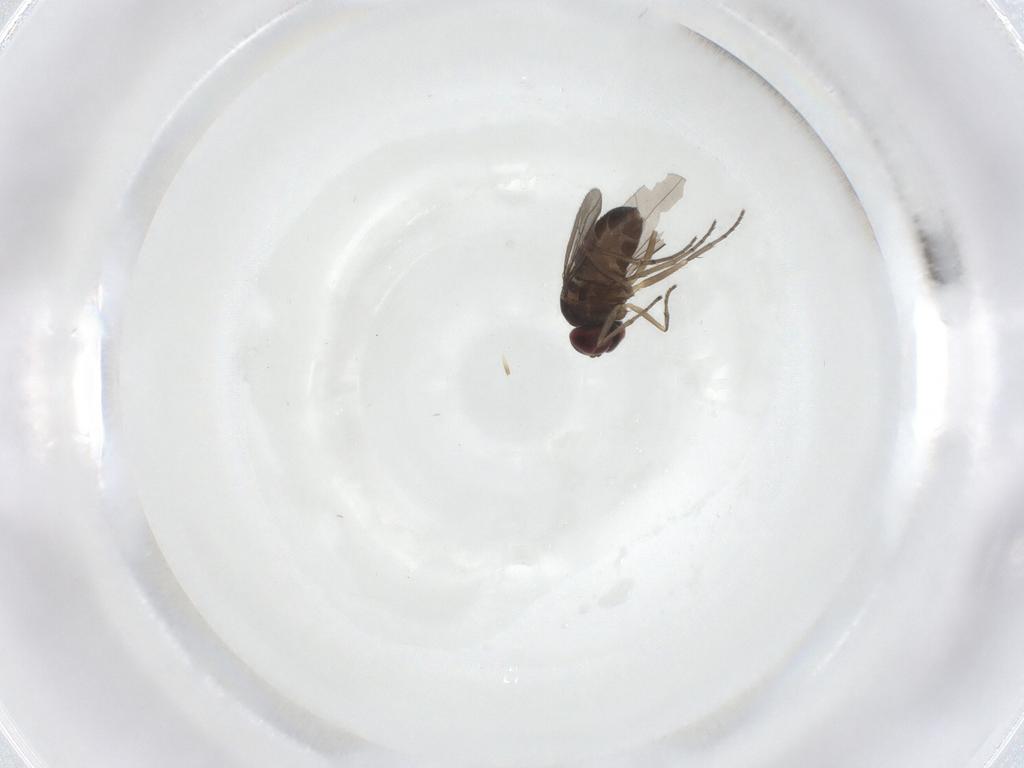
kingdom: Animalia
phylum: Arthropoda
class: Insecta
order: Diptera
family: Dolichopodidae
